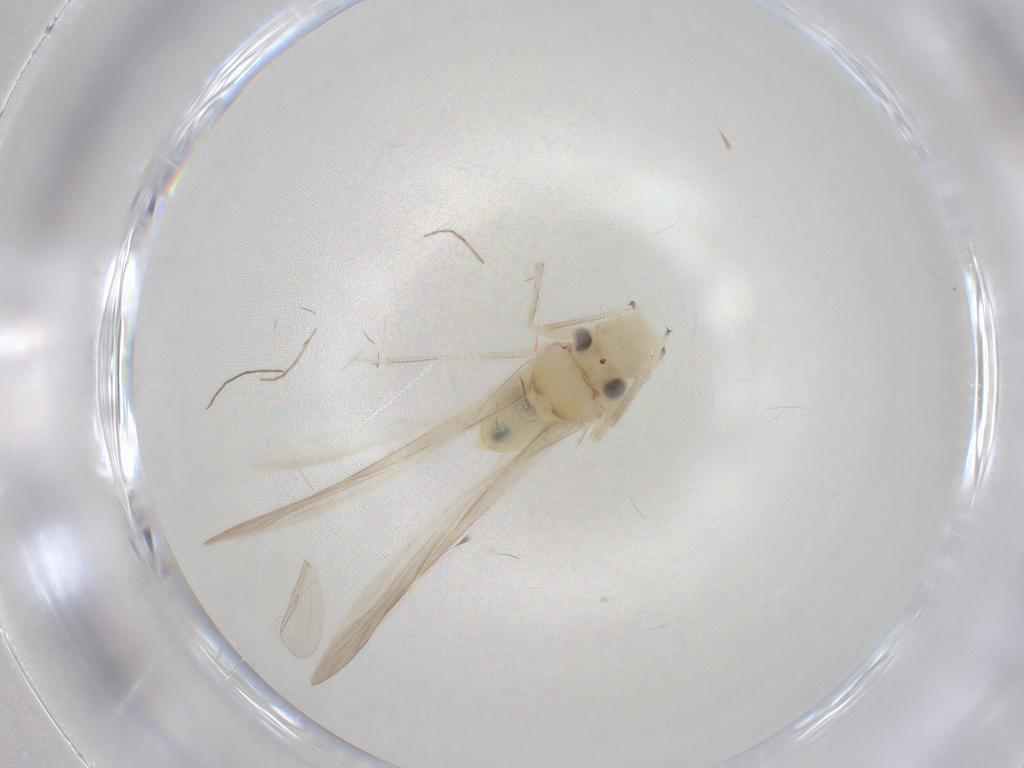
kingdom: Animalia
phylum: Arthropoda
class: Insecta
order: Psocodea
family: Caeciliusidae
